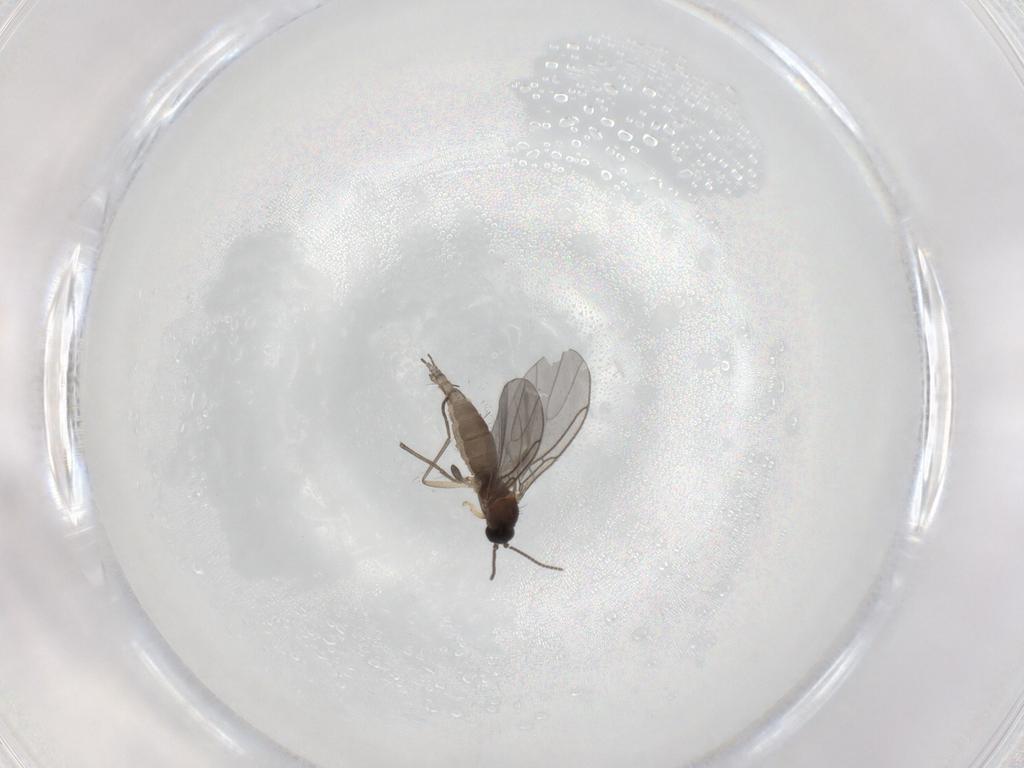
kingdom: Animalia
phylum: Arthropoda
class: Insecta
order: Diptera
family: Sciaridae
